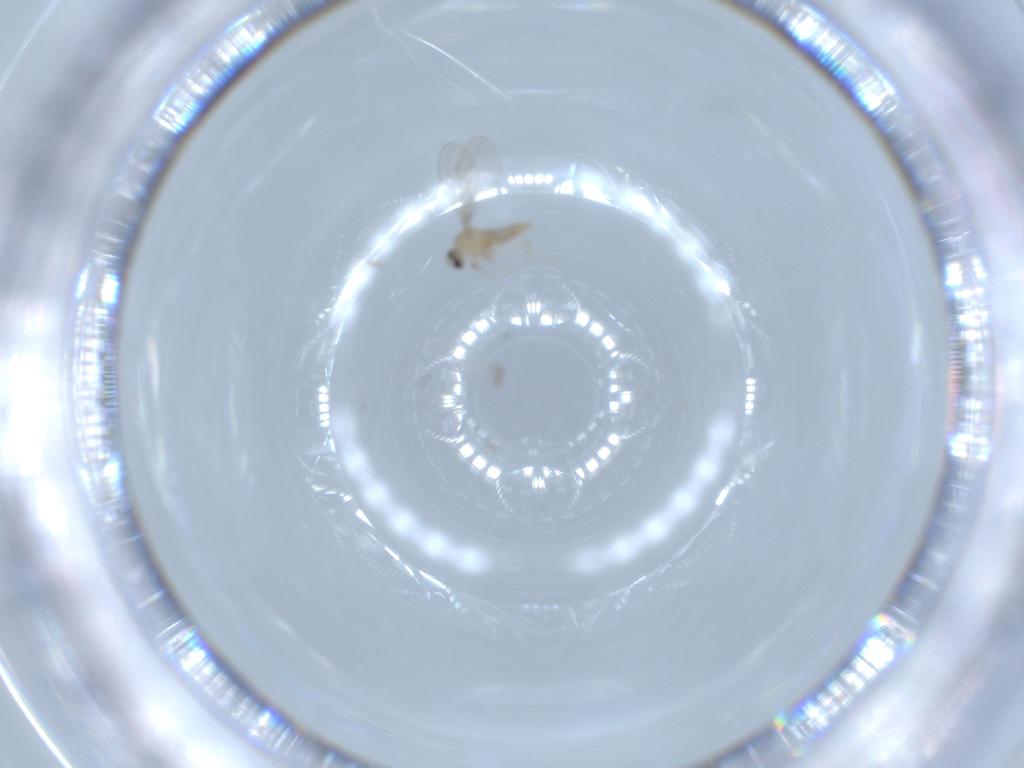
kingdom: Animalia
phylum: Arthropoda
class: Insecta
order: Diptera
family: Cecidomyiidae
